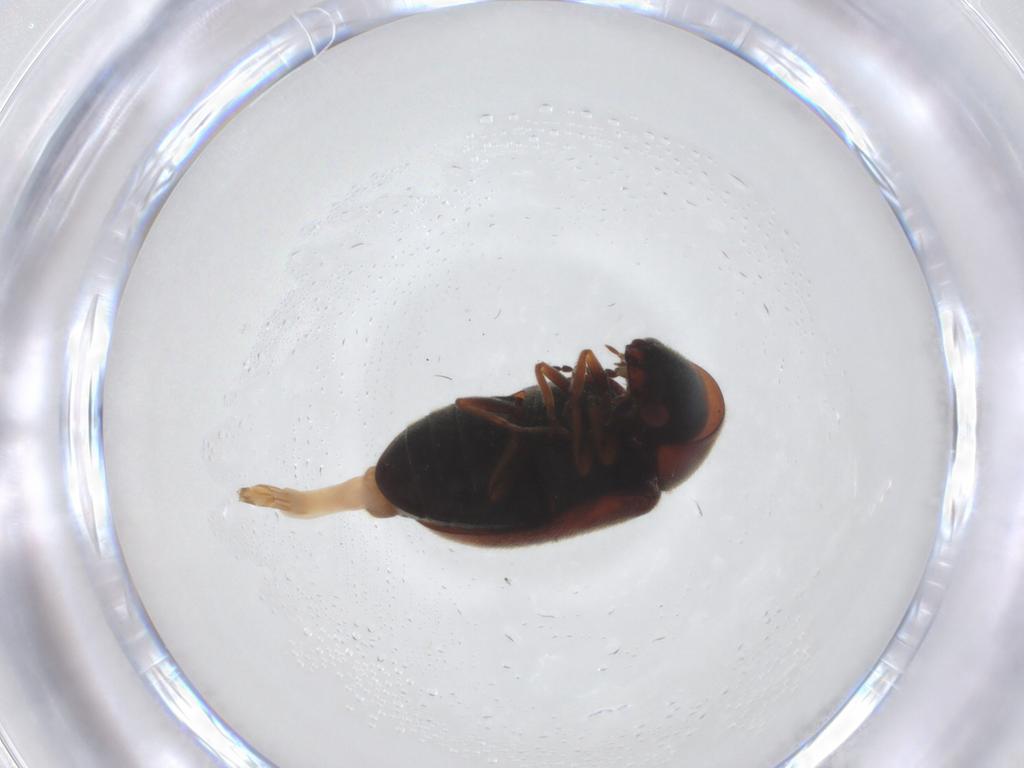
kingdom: Animalia
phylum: Arthropoda
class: Insecta
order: Coleoptera
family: Ptinidae
